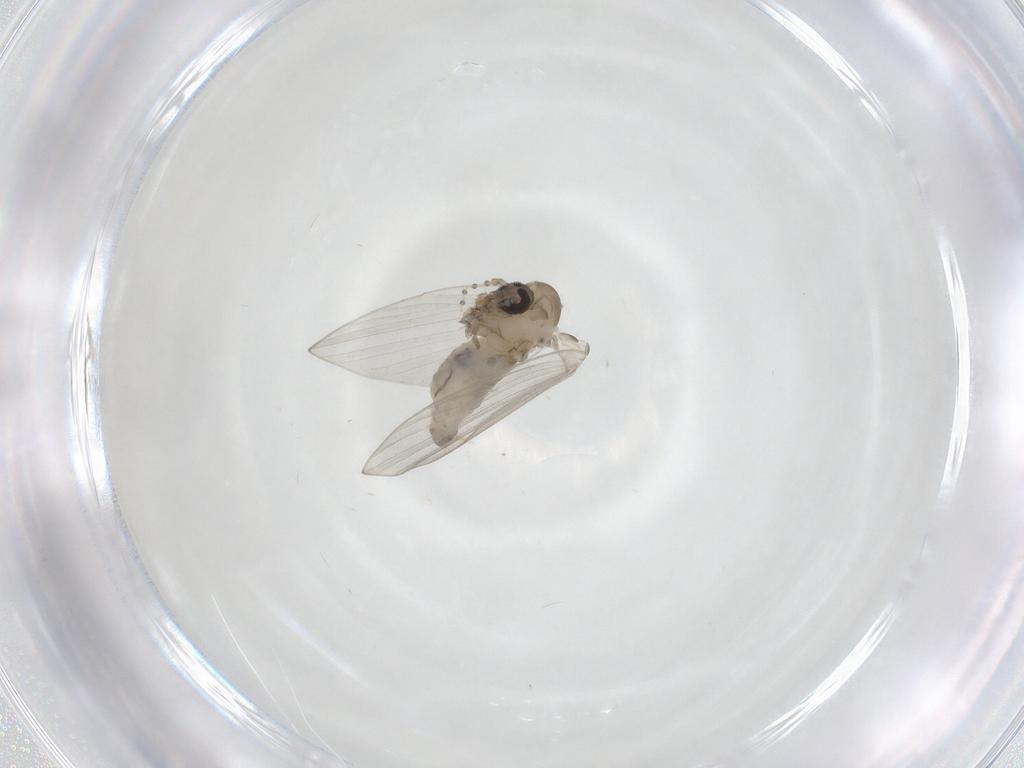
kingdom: Animalia
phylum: Arthropoda
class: Insecta
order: Diptera
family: Psychodidae
